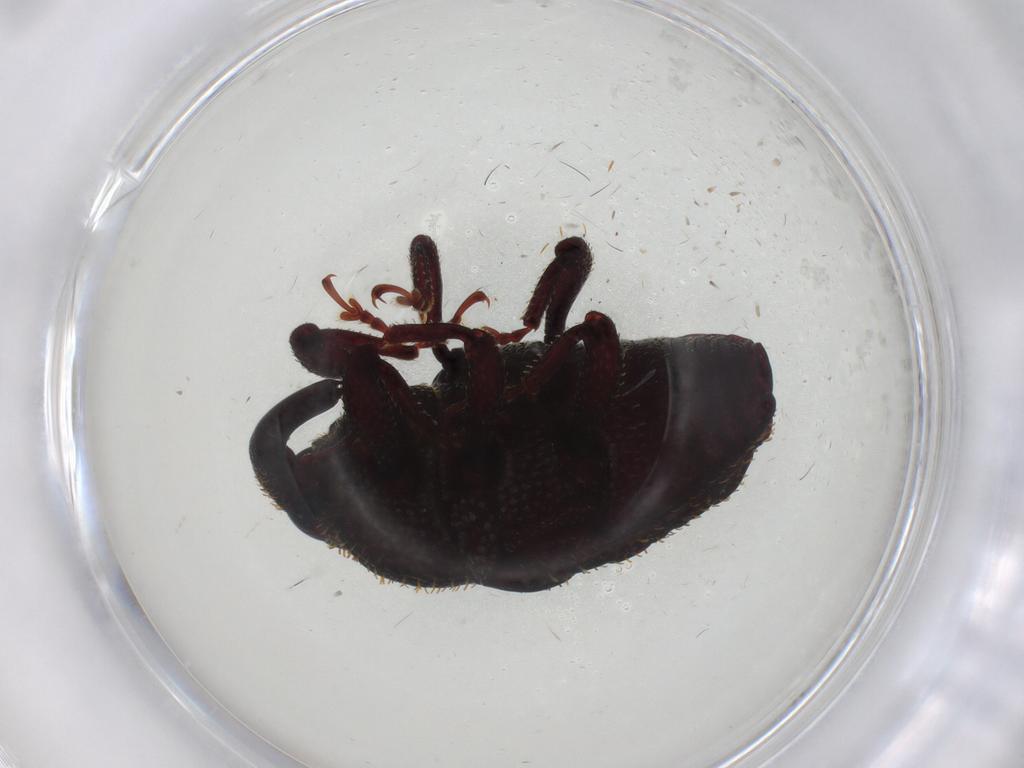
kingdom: Animalia
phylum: Arthropoda
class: Insecta
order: Coleoptera
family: Curculionidae
